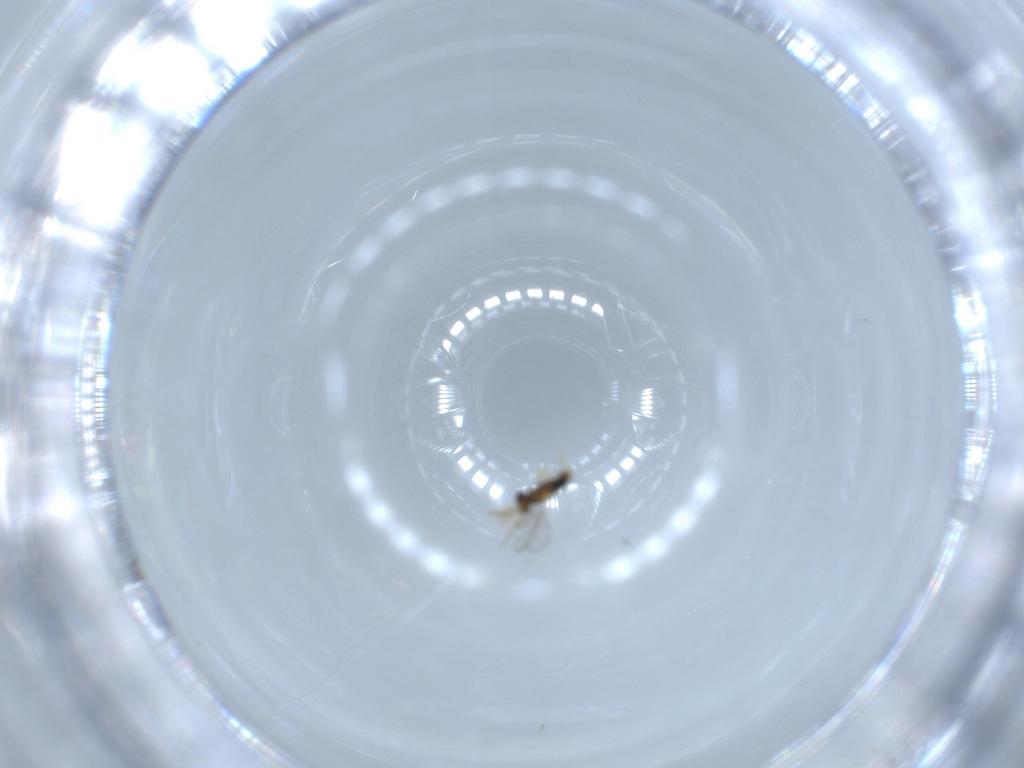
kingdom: Animalia
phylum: Arthropoda
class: Insecta
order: Hymenoptera
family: Aphelinidae
